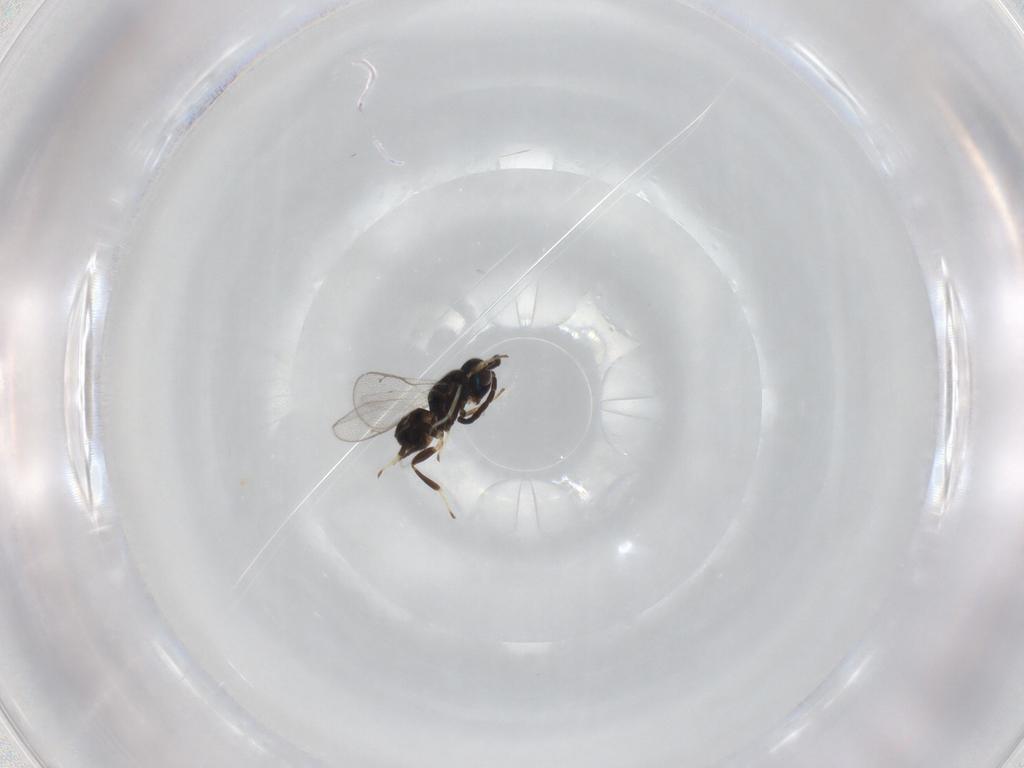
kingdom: Animalia
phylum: Arthropoda
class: Insecta
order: Hymenoptera
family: Eupelmidae
